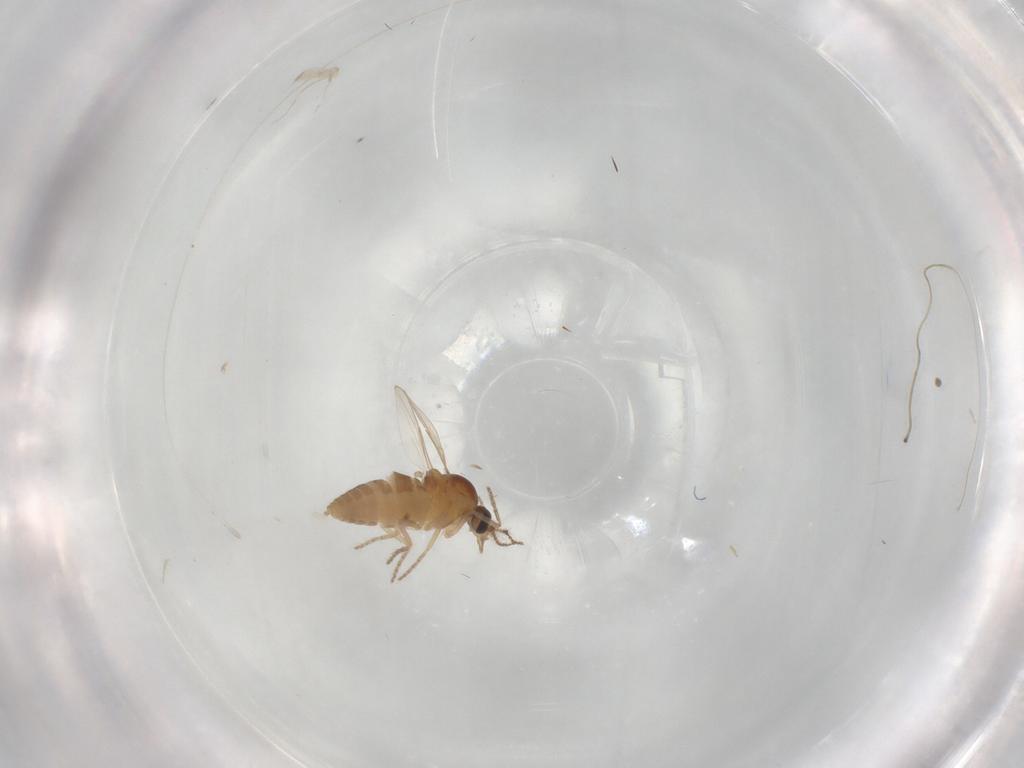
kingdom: Animalia
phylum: Arthropoda
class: Insecta
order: Diptera
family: Ceratopogonidae
